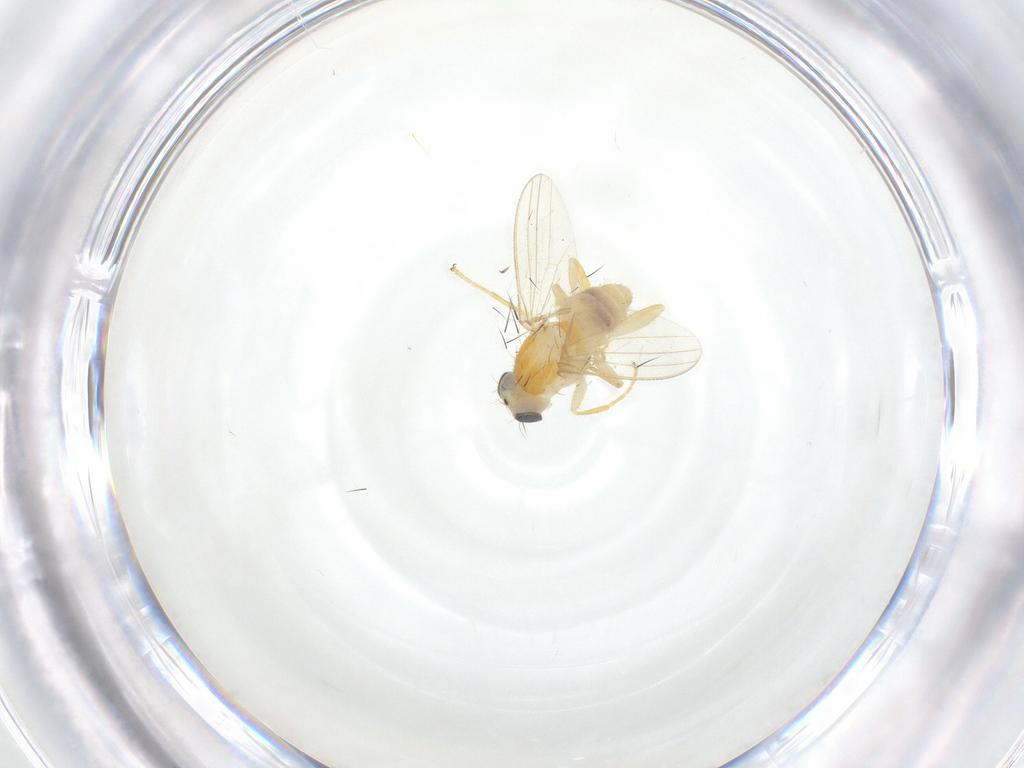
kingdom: Animalia
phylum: Arthropoda
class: Insecta
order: Diptera
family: Chyromyidae
